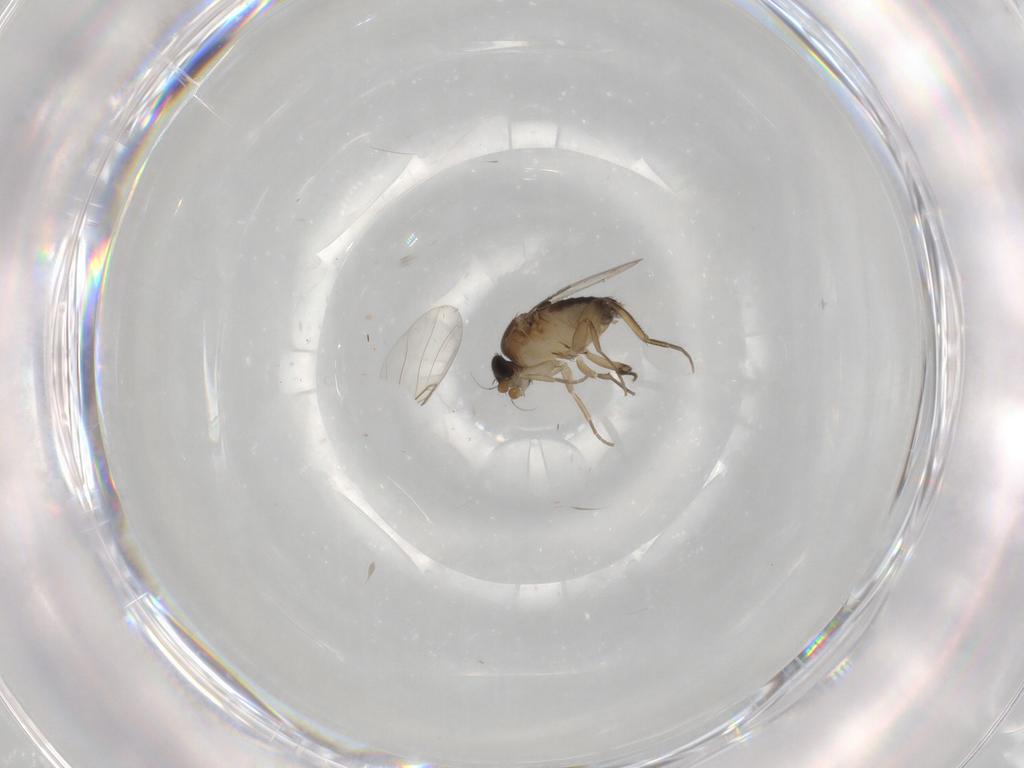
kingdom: Animalia
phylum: Arthropoda
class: Insecta
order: Diptera
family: Phoridae
